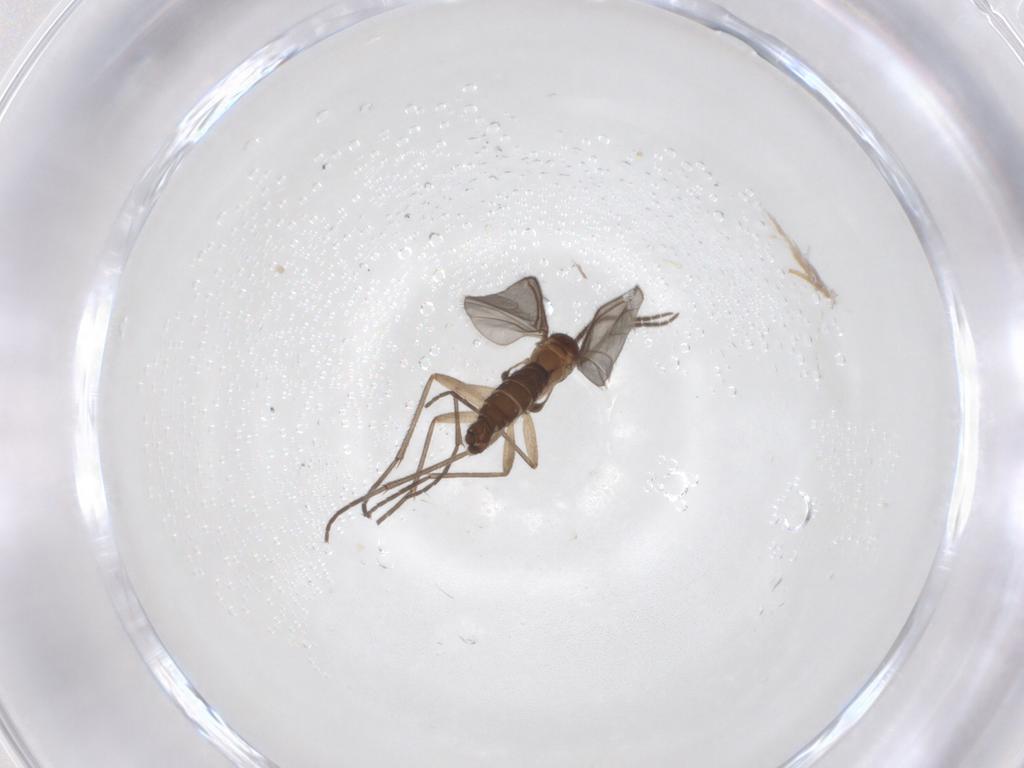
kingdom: Animalia
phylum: Arthropoda
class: Insecta
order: Diptera
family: Sciaridae
